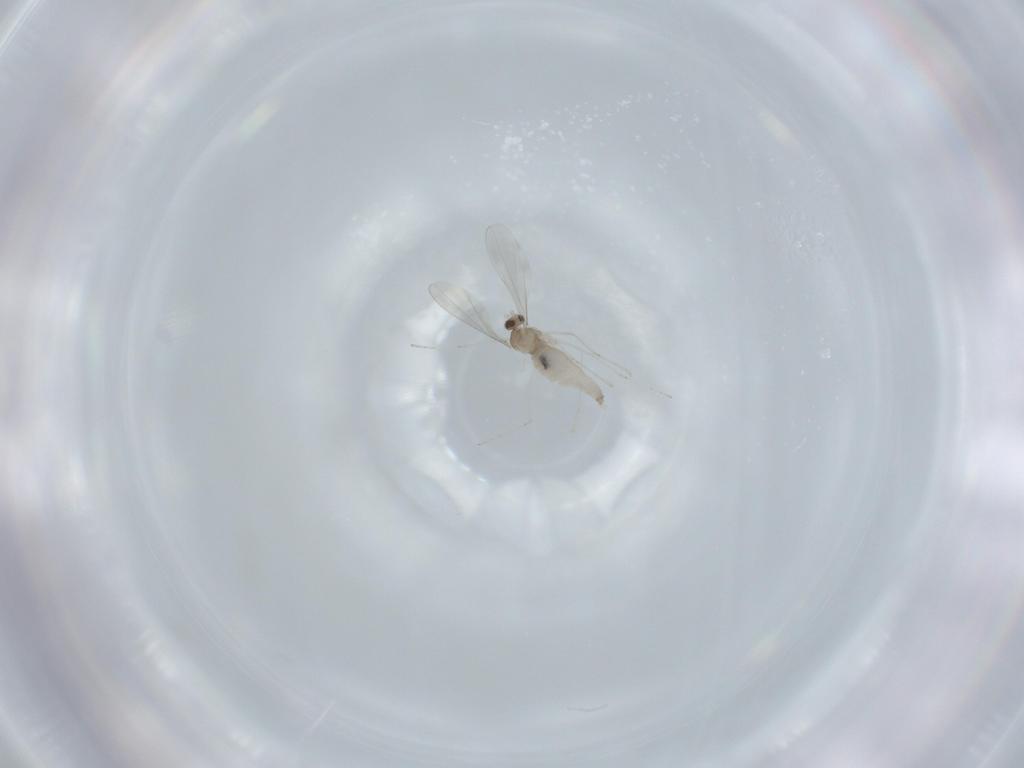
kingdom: Animalia
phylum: Arthropoda
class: Insecta
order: Diptera
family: Cecidomyiidae
